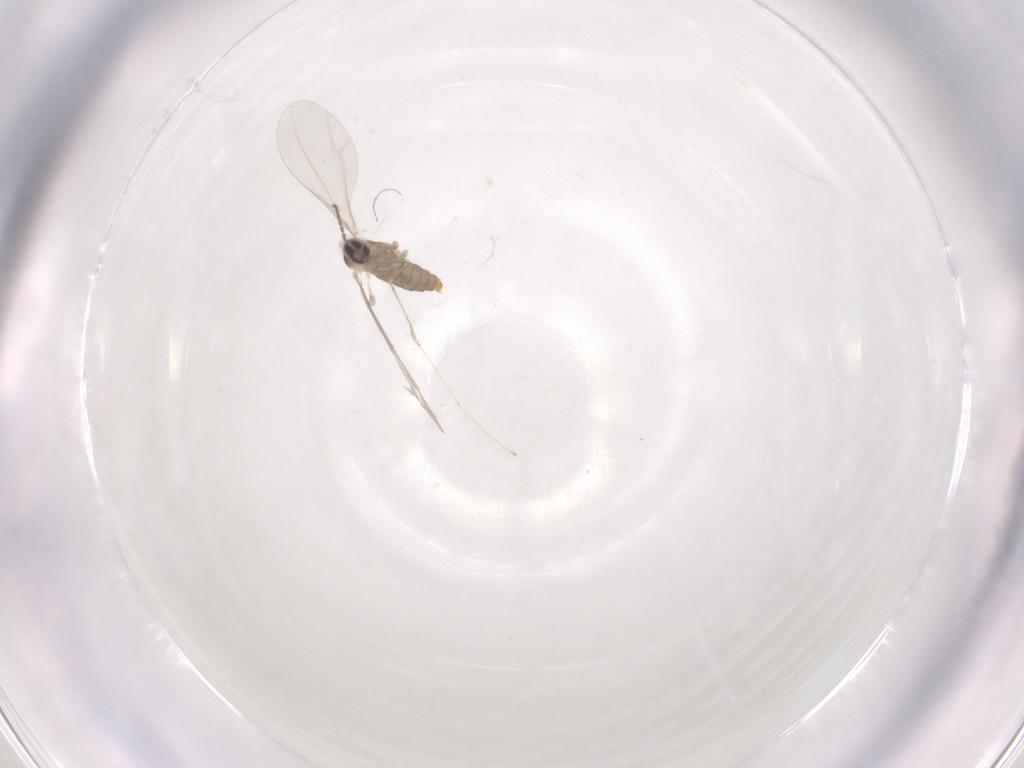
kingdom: Animalia
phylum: Arthropoda
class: Insecta
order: Diptera
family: Cecidomyiidae
